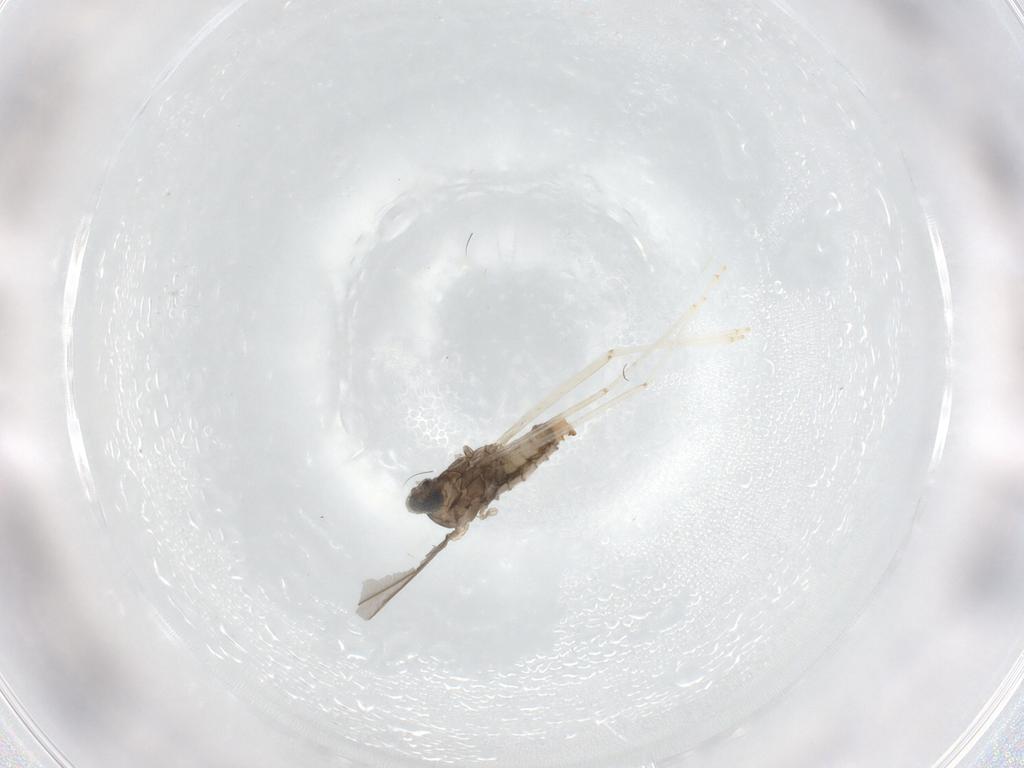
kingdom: Animalia
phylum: Arthropoda
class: Insecta
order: Diptera
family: Cecidomyiidae
